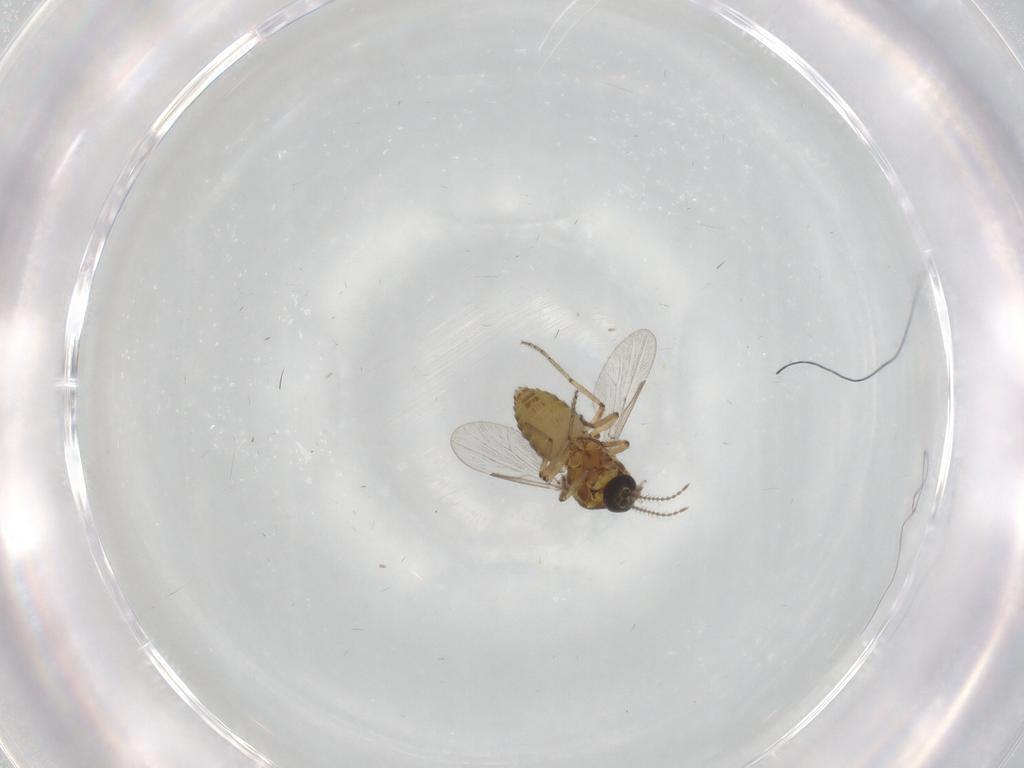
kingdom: Animalia
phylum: Arthropoda
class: Insecta
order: Diptera
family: Ceratopogonidae
